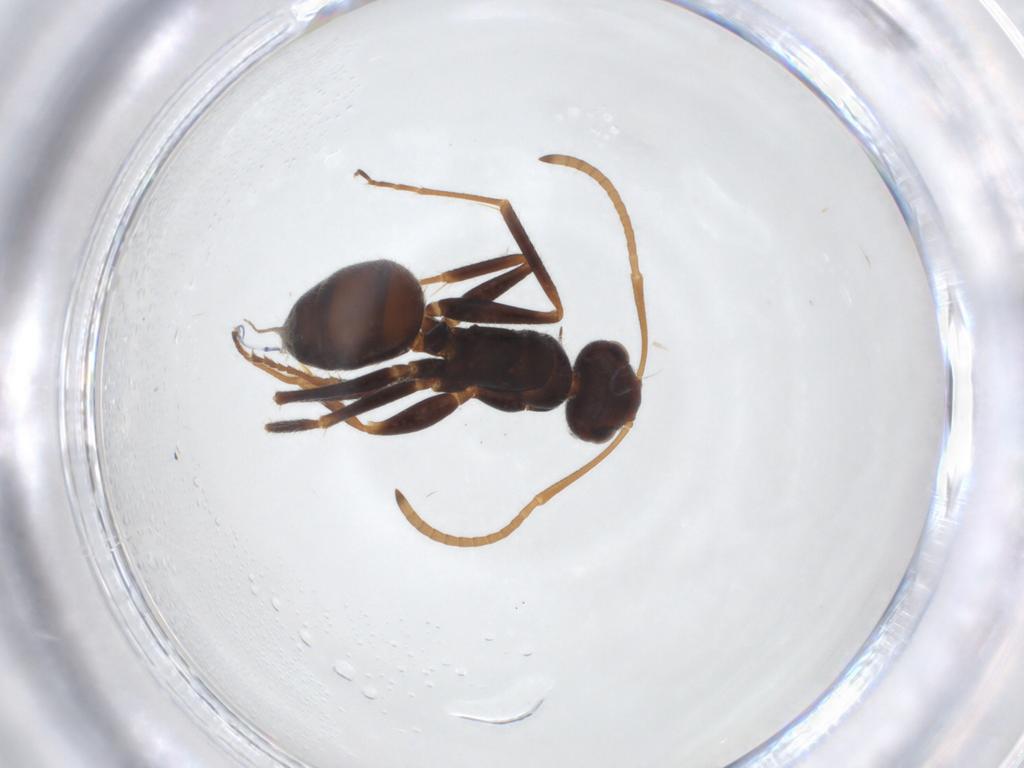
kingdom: Animalia
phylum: Arthropoda
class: Insecta
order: Hymenoptera
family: Formicidae
